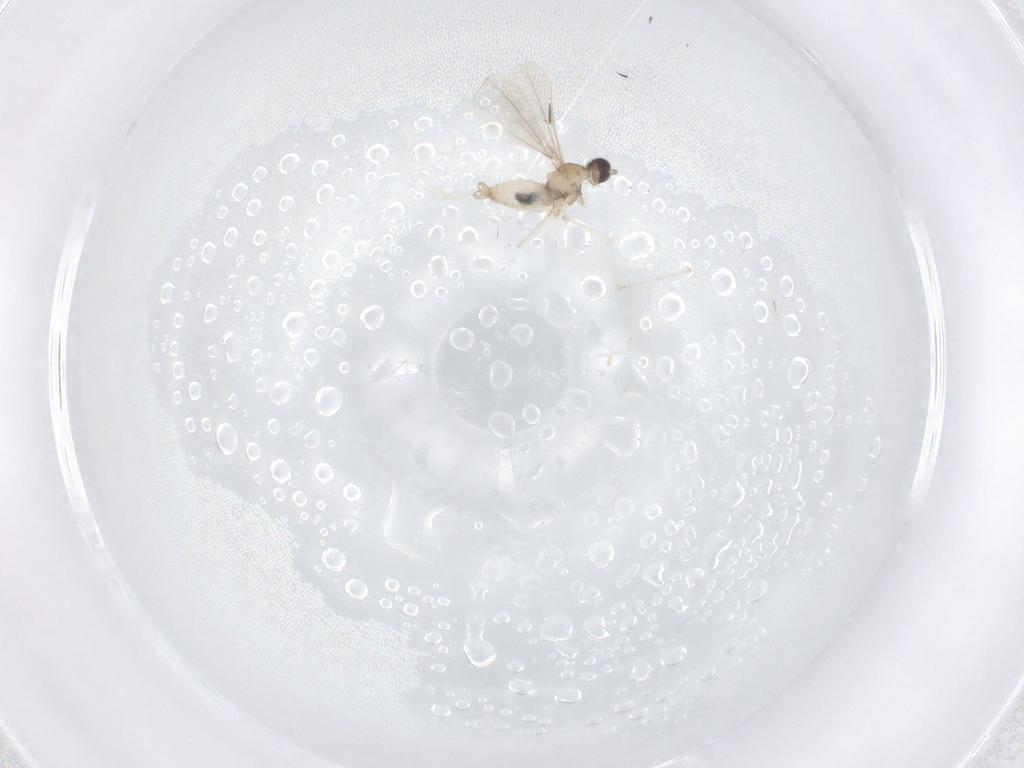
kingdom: Animalia
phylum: Arthropoda
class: Insecta
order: Diptera
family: Cecidomyiidae
